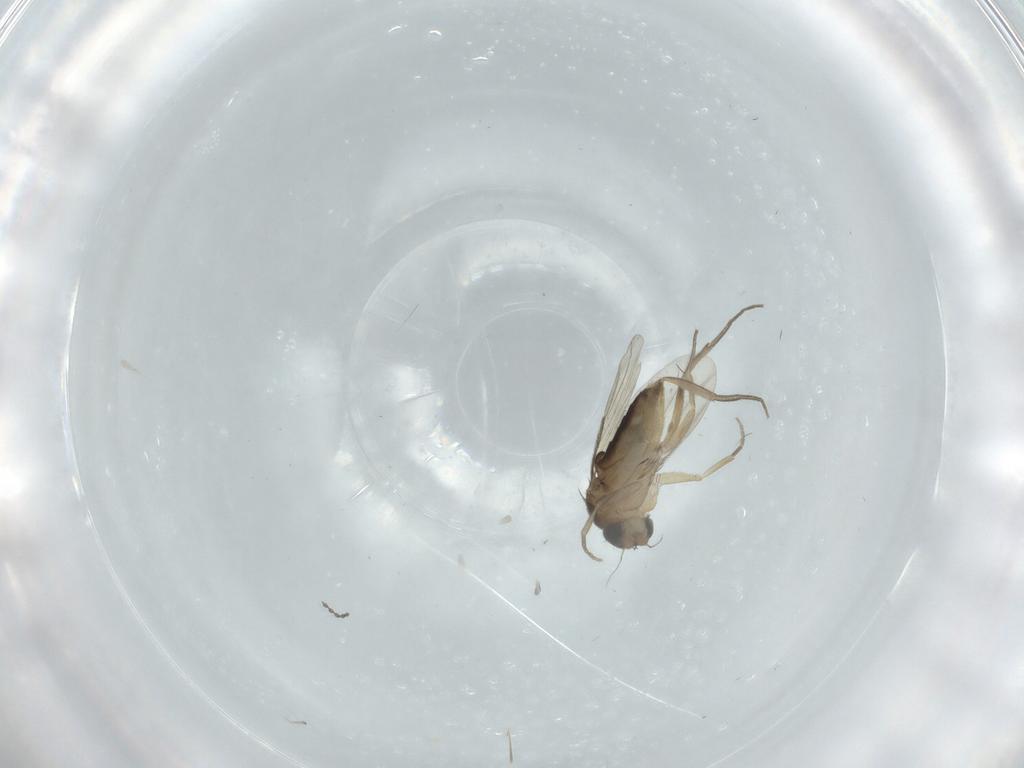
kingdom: Animalia
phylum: Arthropoda
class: Insecta
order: Diptera
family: Phoridae
